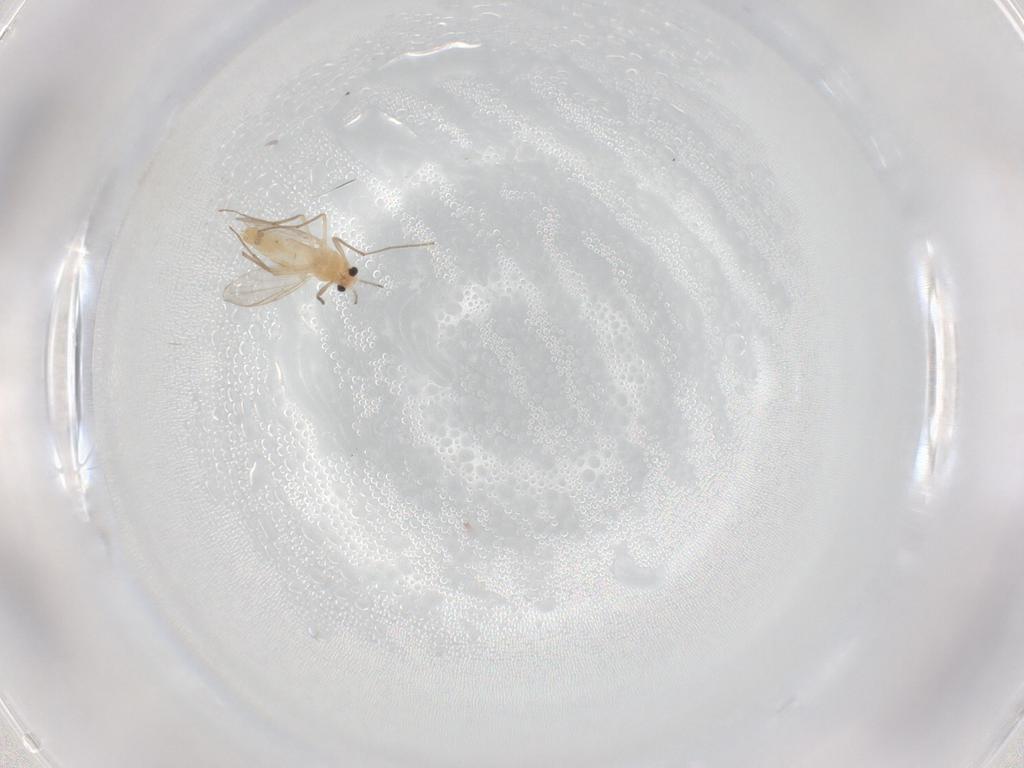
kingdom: Animalia
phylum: Arthropoda
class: Insecta
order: Diptera
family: Chironomidae
